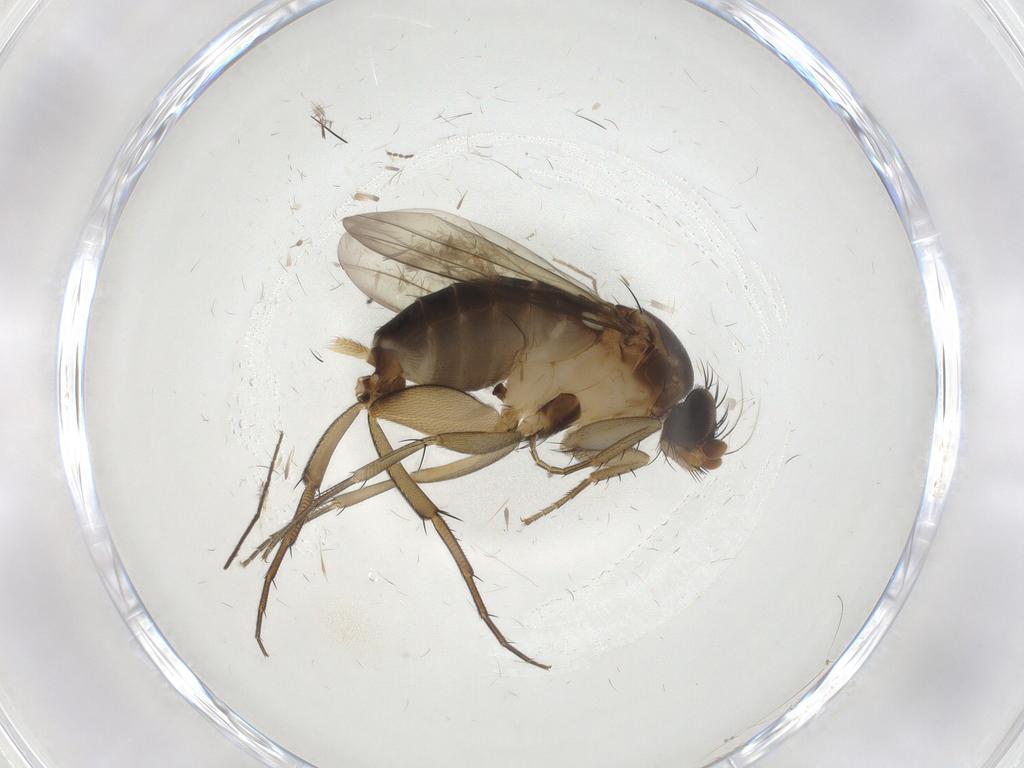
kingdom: Animalia
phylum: Arthropoda
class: Insecta
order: Diptera
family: Phoridae
